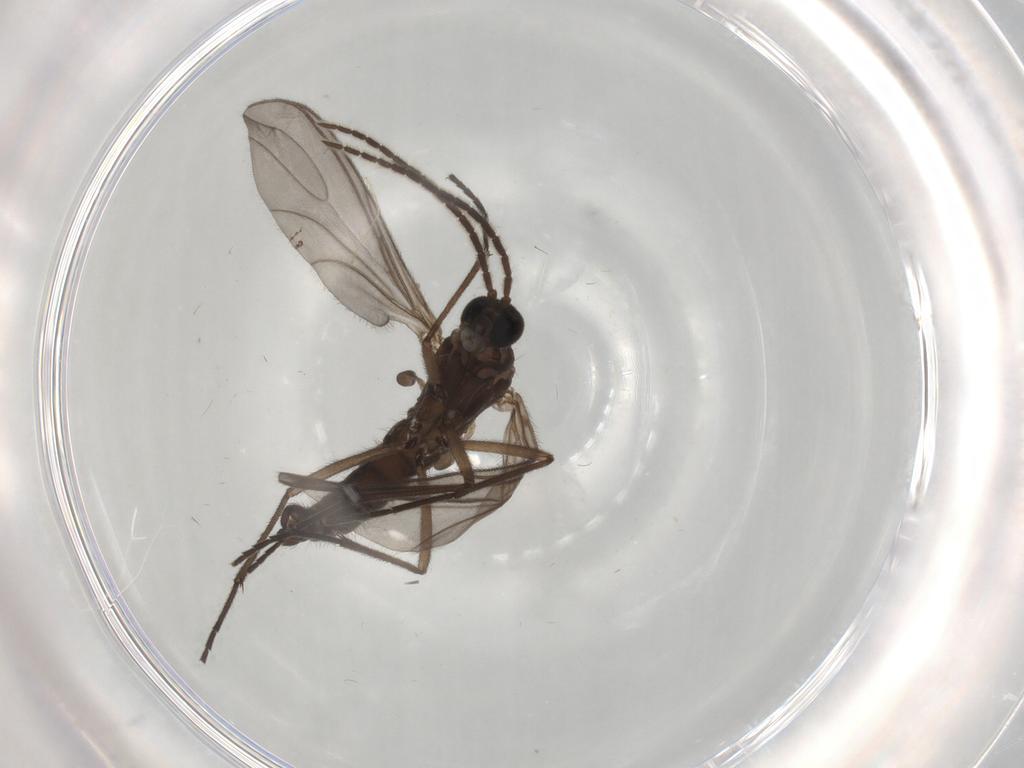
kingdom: Animalia
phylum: Arthropoda
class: Insecta
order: Diptera
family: Sciaridae
